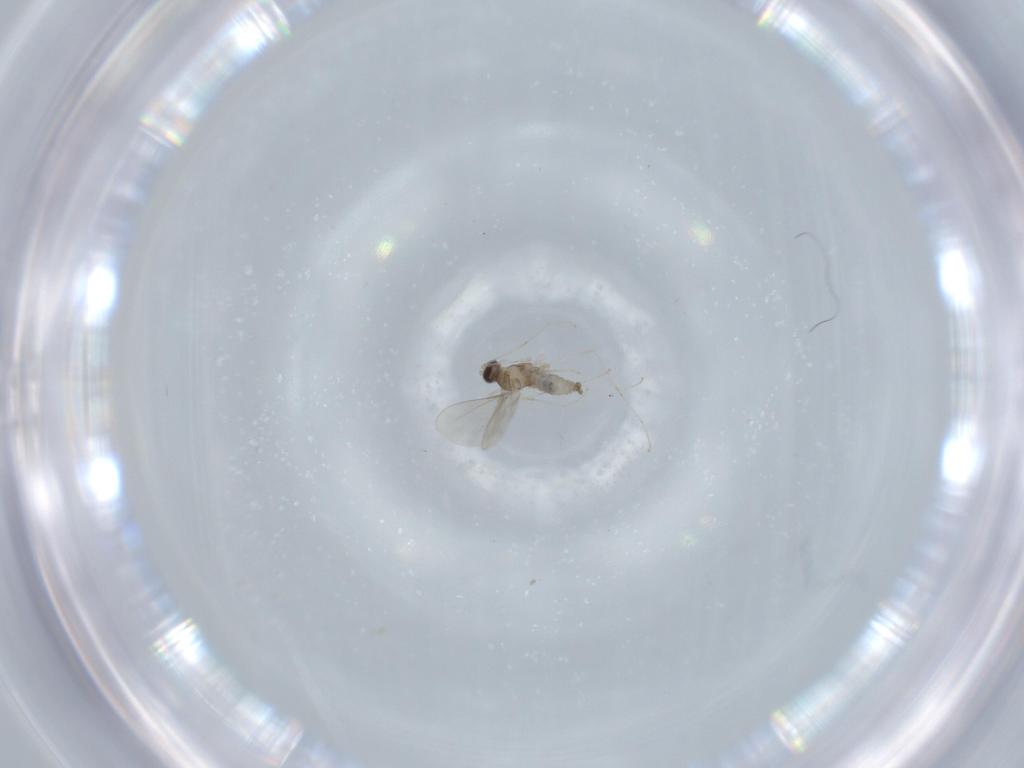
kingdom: Animalia
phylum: Arthropoda
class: Insecta
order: Diptera
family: Cecidomyiidae
